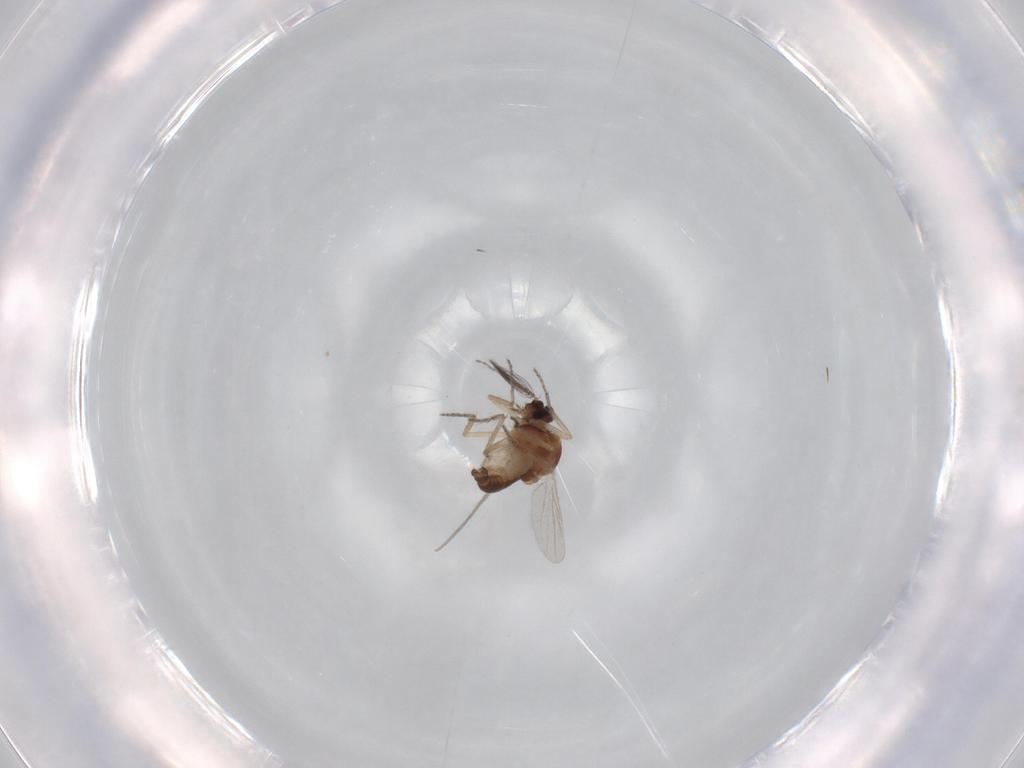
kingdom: Animalia
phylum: Arthropoda
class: Insecta
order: Diptera
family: Ceratopogonidae
